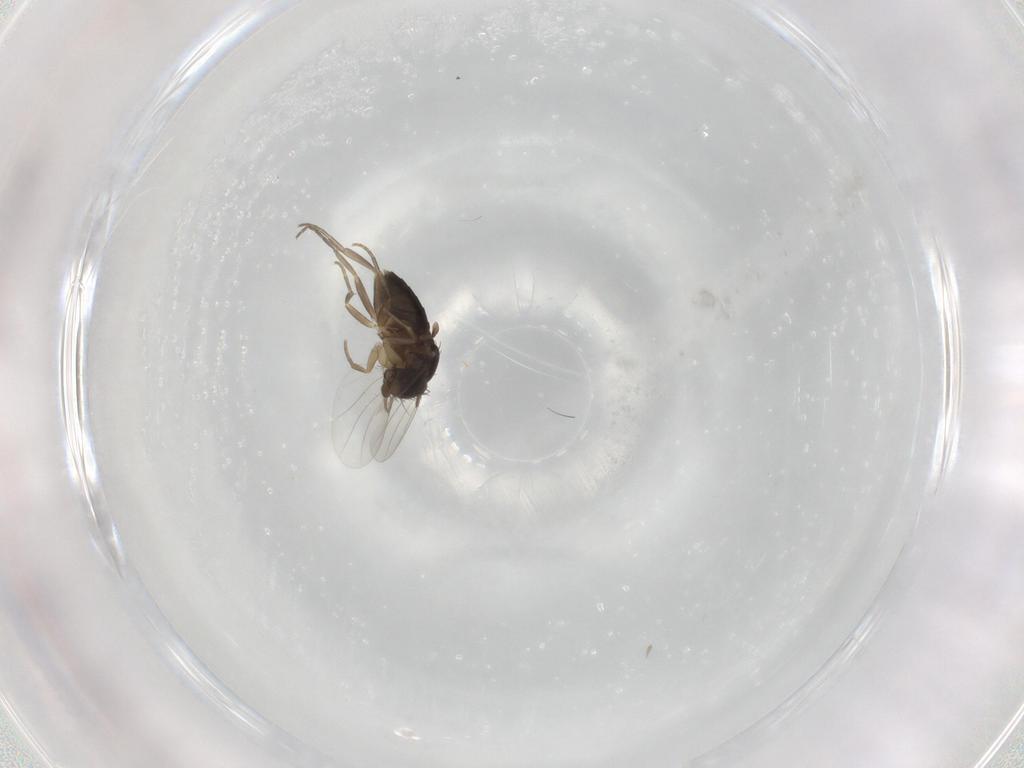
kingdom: Animalia
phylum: Arthropoda
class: Insecta
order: Diptera
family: Phoridae
